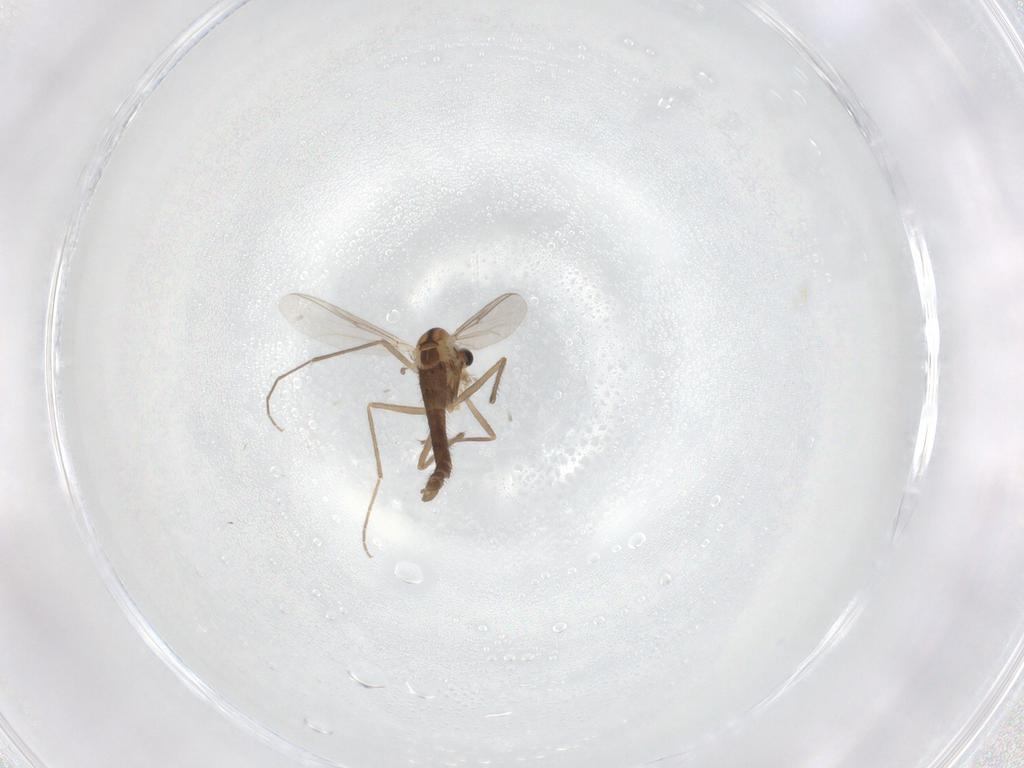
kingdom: Animalia
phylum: Arthropoda
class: Insecta
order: Diptera
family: Chironomidae
